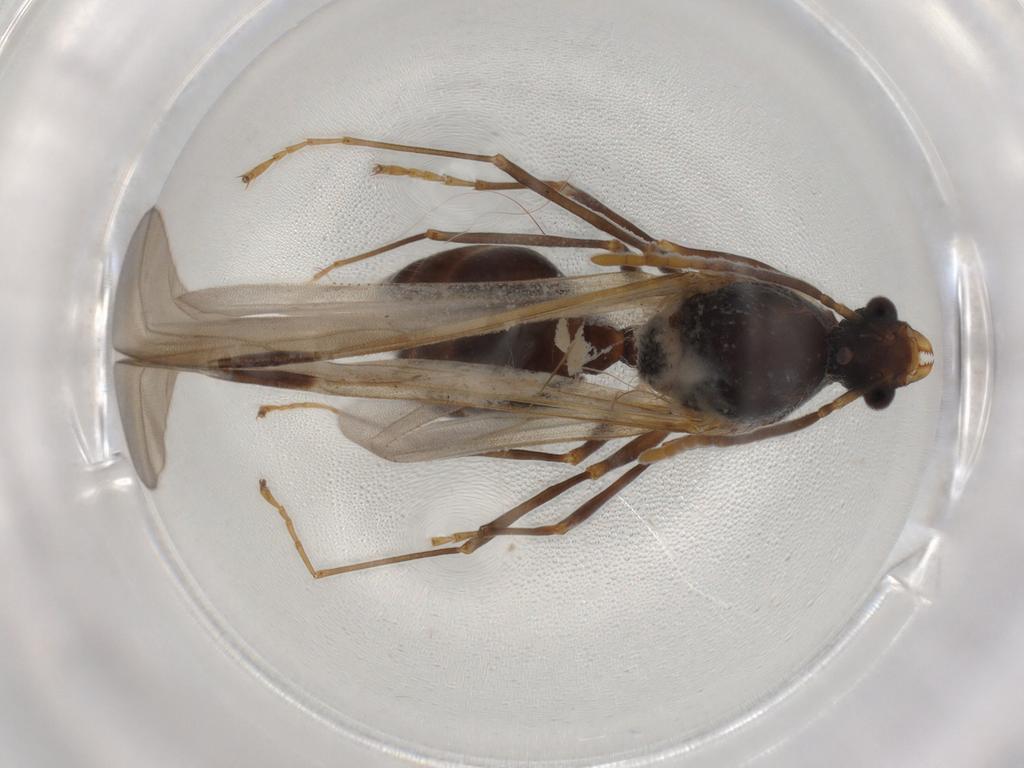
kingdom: Animalia
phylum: Arthropoda
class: Insecta
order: Hymenoptera
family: Formicidae
